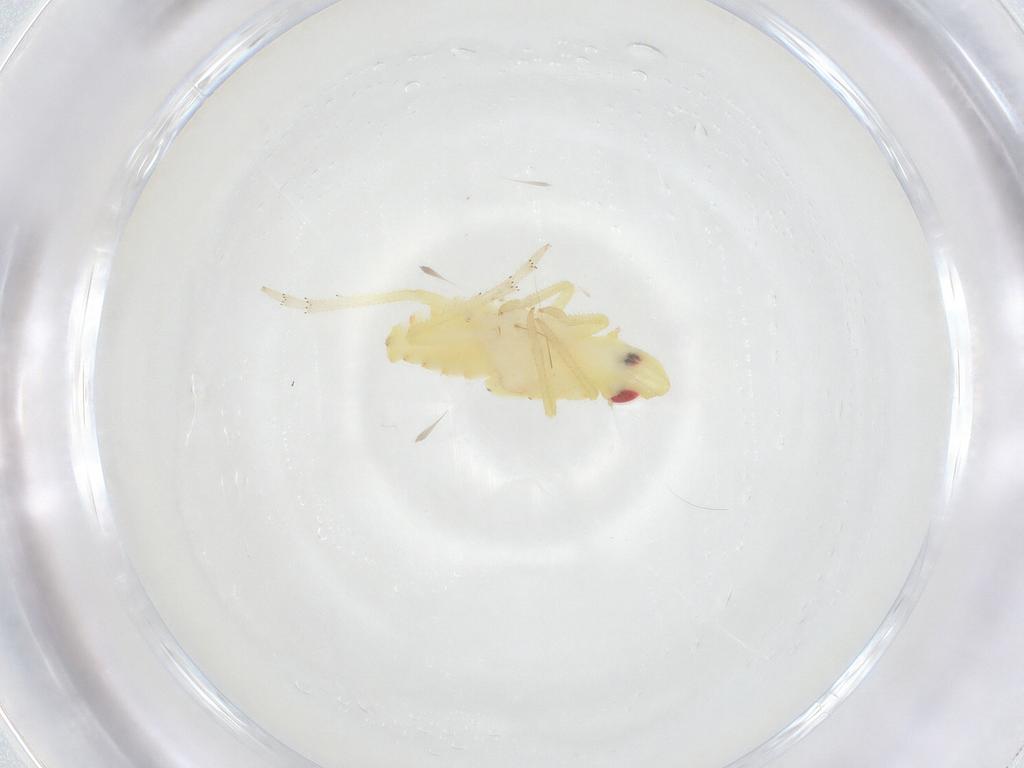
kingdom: Animalia
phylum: Arthropoda
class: Insecta
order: Hemiptera
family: Tropiduchidae
